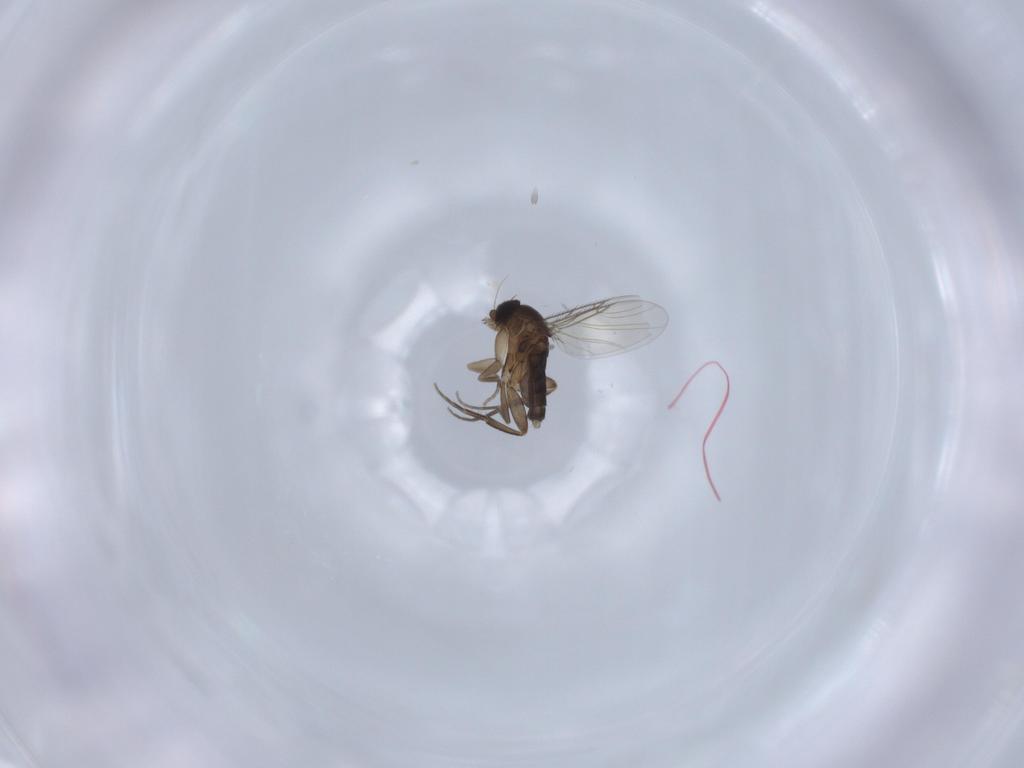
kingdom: Animalia
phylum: Arthropoda
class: Insecta
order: Diptera
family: Phoridae
